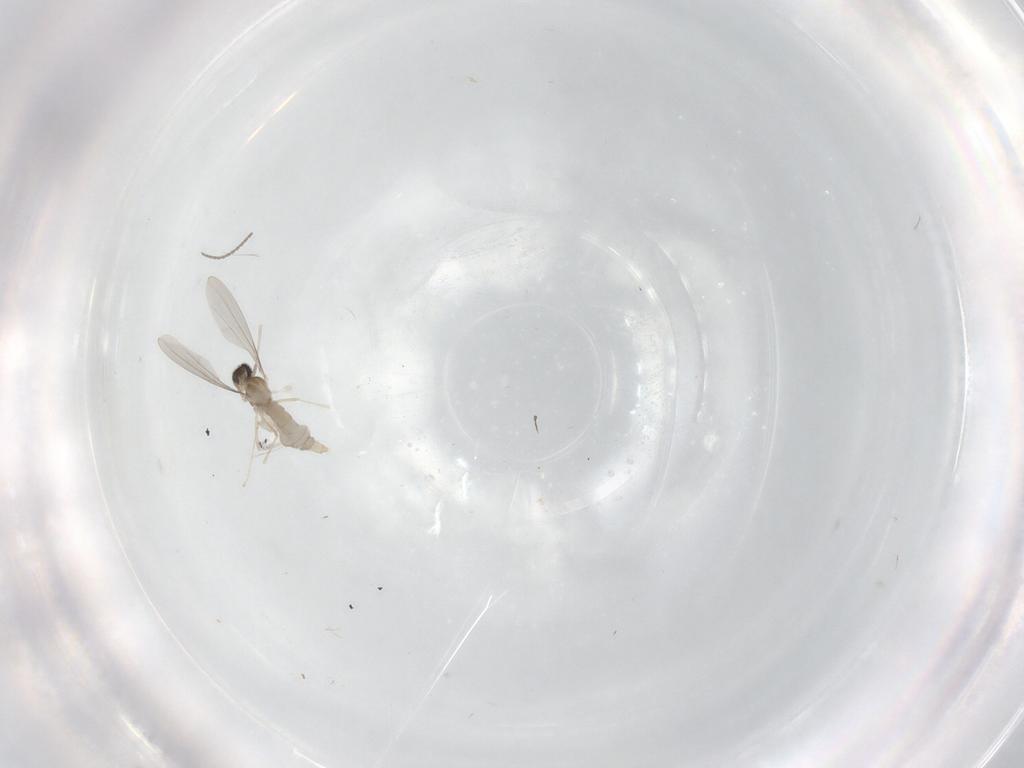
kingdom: Animalia
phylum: Arthropoda
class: Insecta
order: Diptera
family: Cecidomyiidae
